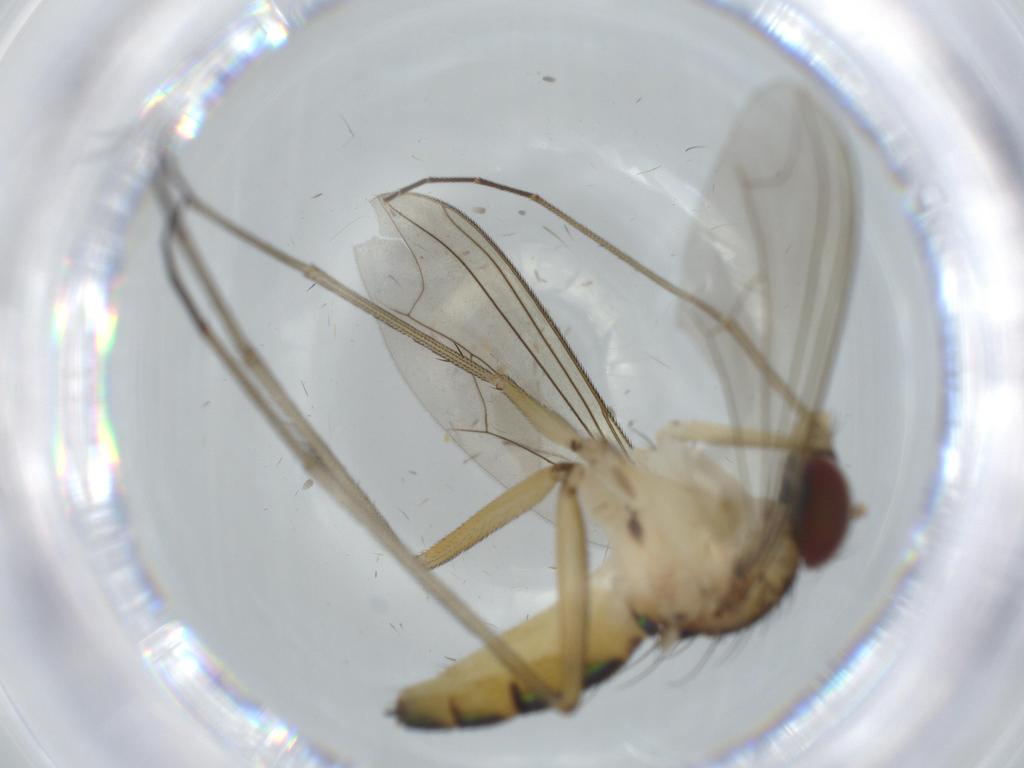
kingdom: Animalia
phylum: Arthropoda
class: Insecta
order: Diptera
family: Dolichopodidae
